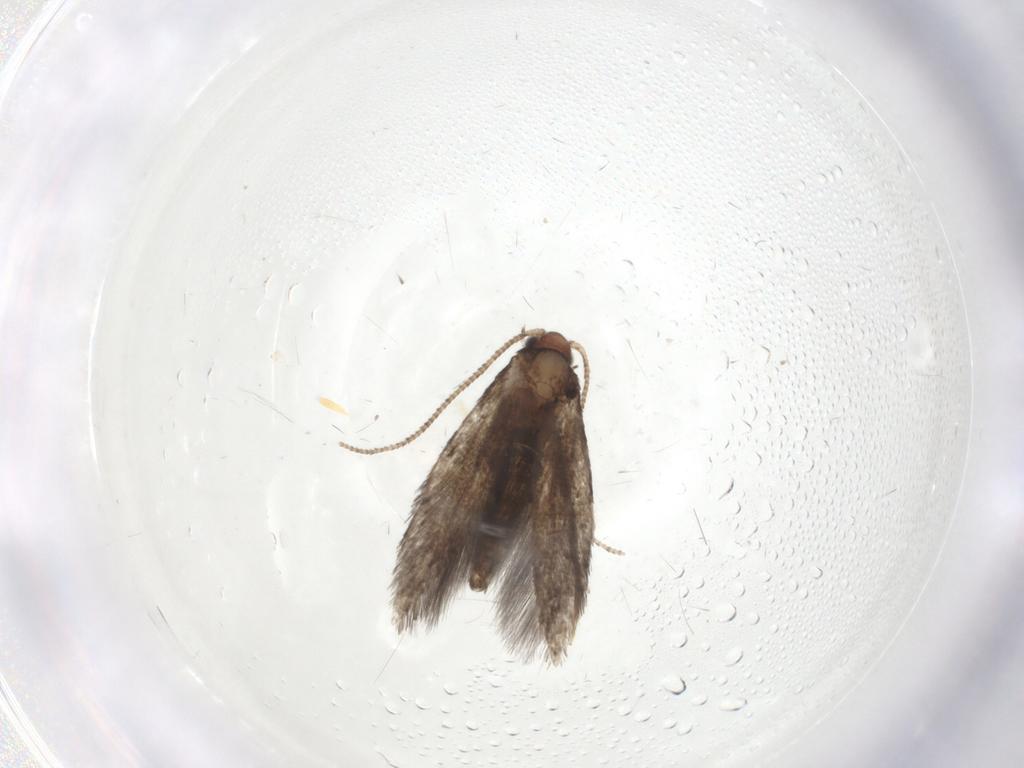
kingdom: Animalia
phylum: Arthropoda
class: Insecta
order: Lepidoptera
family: Tineidae
